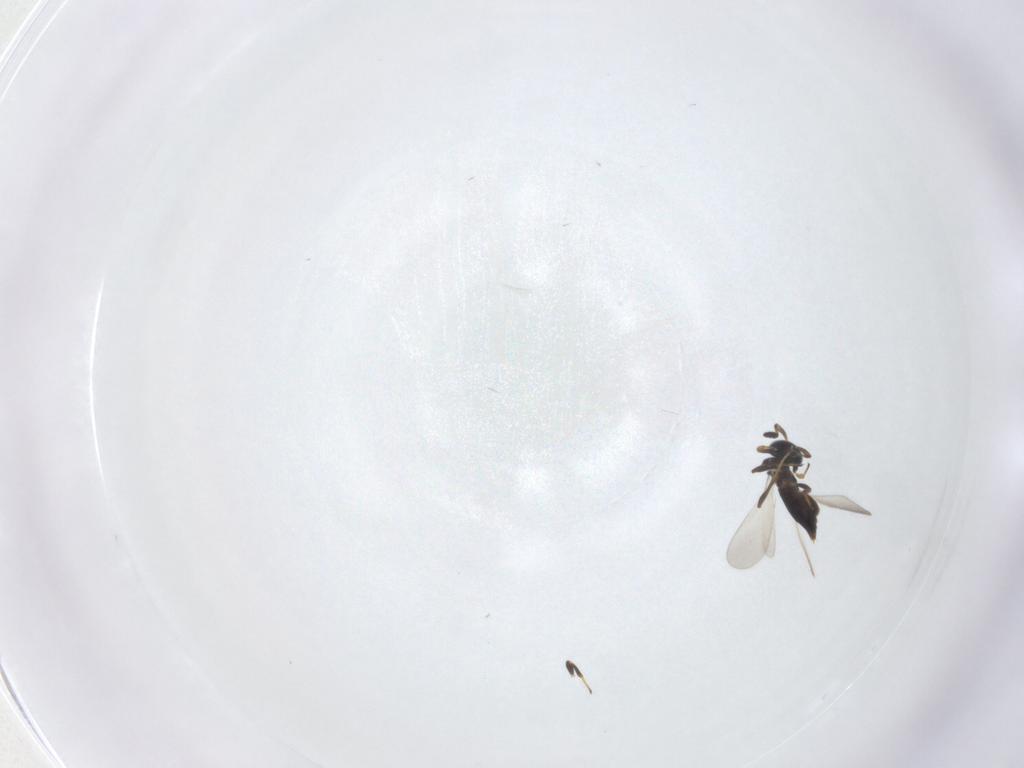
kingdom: Animalia
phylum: Arthropoda
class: Insecta
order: Hymenoptera
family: Platygastridae
